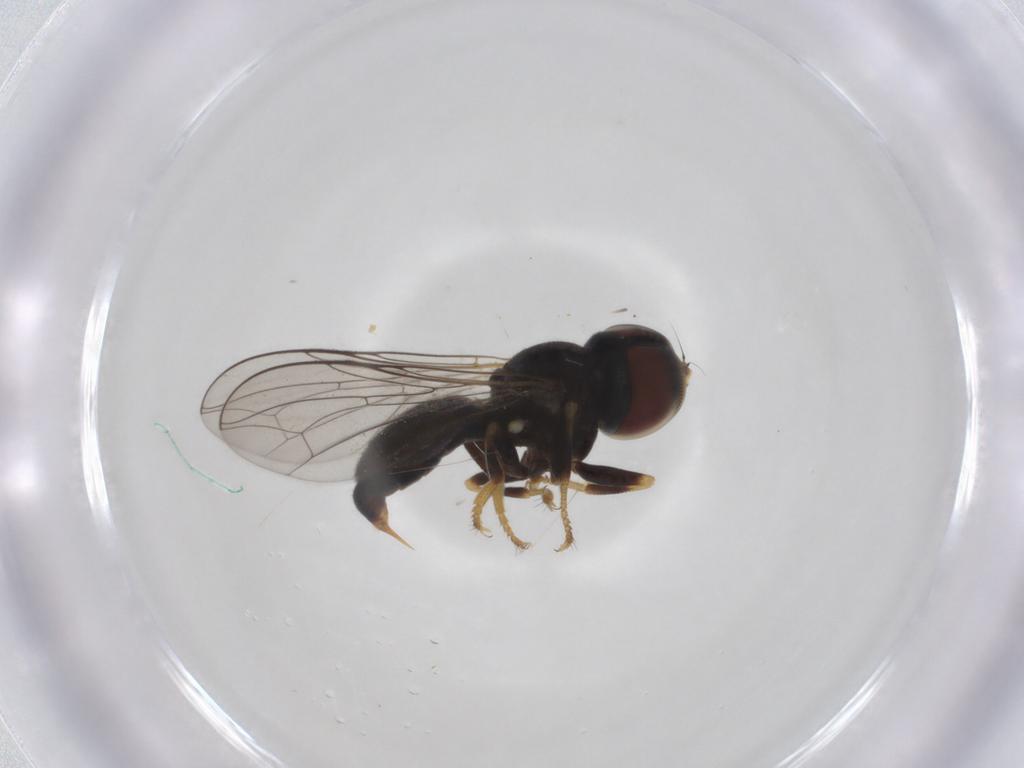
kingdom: Animalia
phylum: Arthropoda
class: Insecta
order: Diptera
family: Pipunculidae
